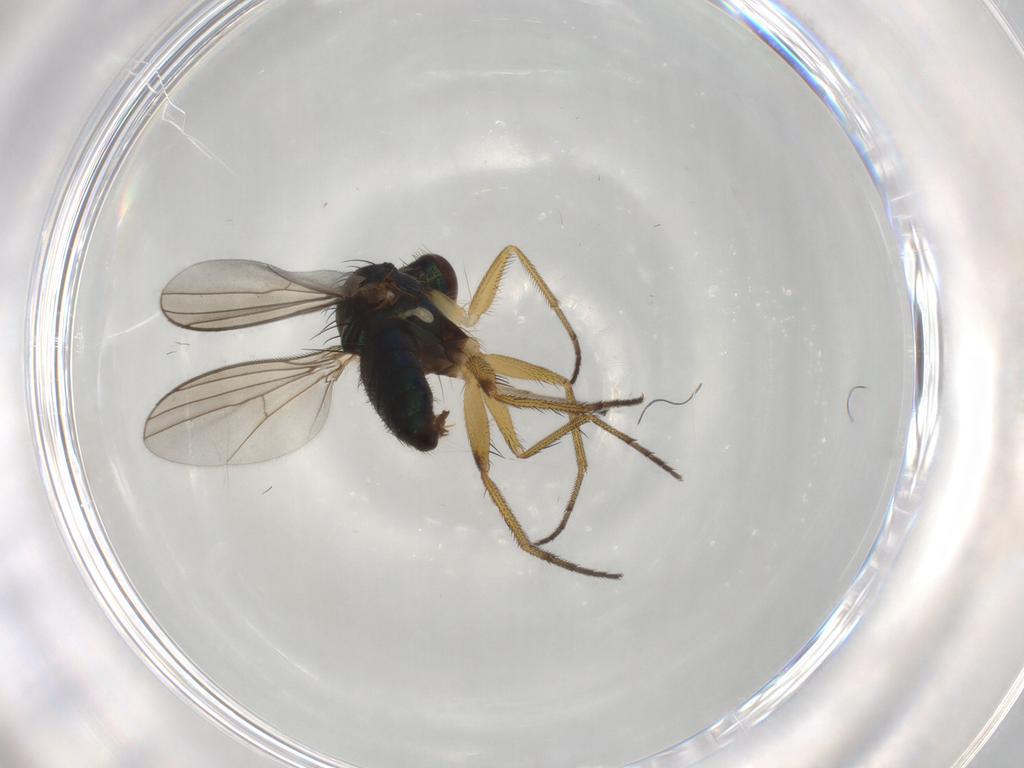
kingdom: Animalia
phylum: Arthropoda
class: Insecta
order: Diptera
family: Dolichopodidae
